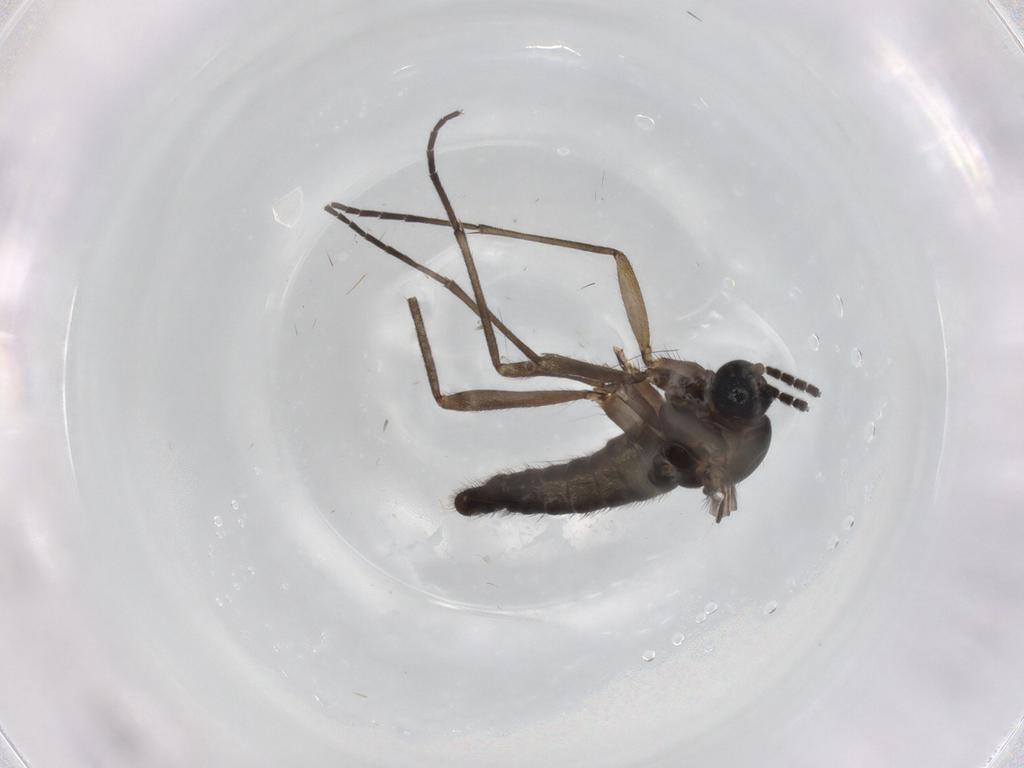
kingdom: Animalia
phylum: Arthropoda
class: Insecta
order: Diptera
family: Sciaridae
